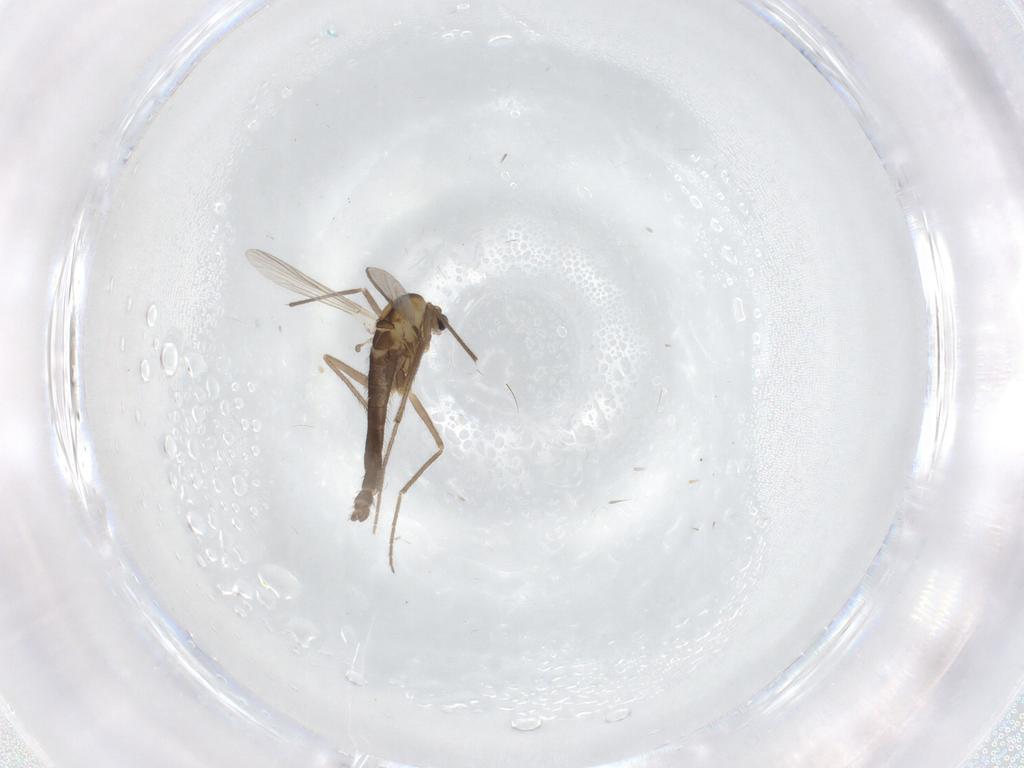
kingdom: Animalia
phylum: Arthropoda
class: Insecta
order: Diptera
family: Chironomidae
